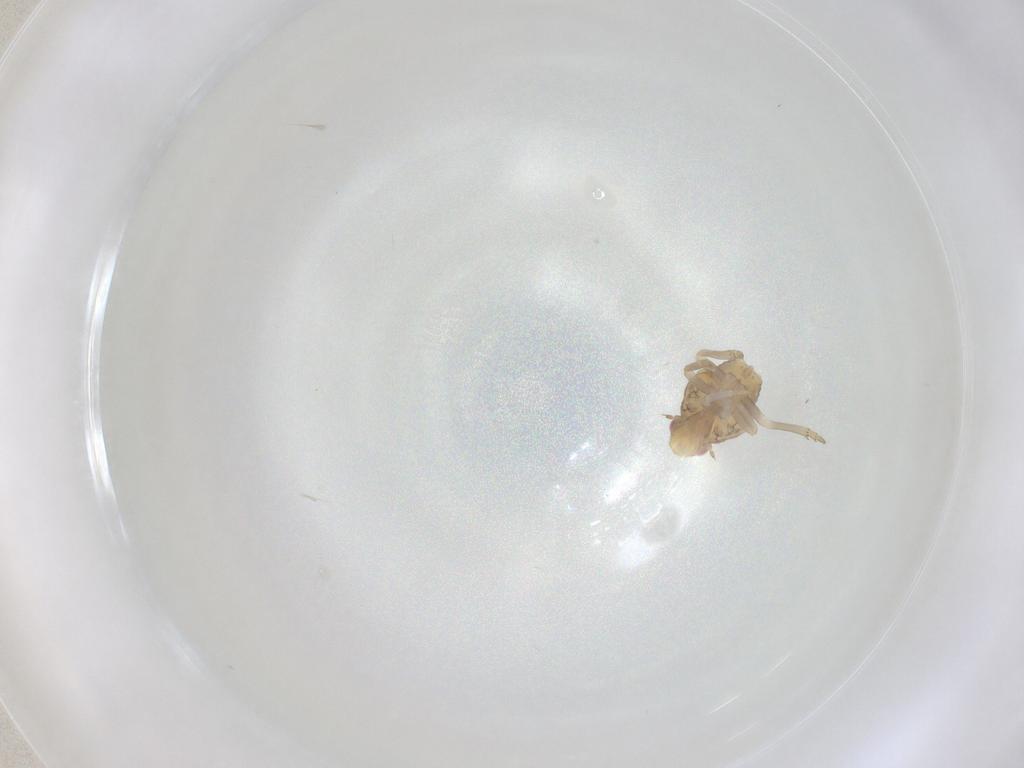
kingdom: Animalia
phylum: Arthropoda
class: Insecta
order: Hemiptera
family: Flatidae
